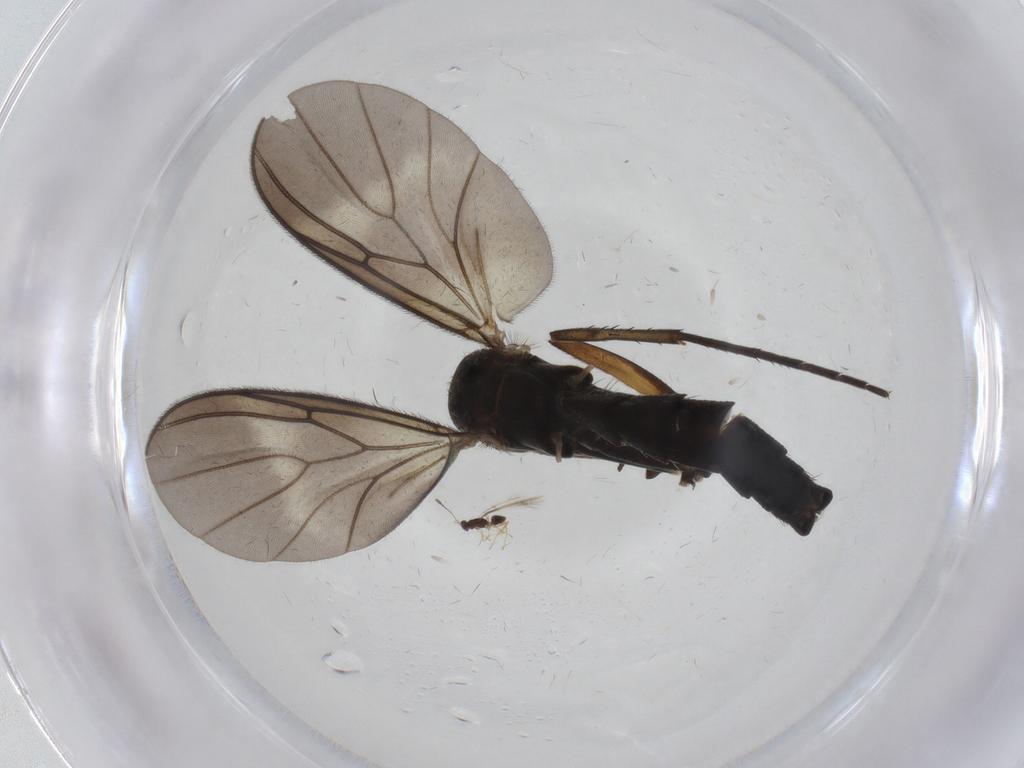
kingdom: Animalia
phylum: Arthropoda
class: Insecta
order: Diptera
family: Mycetophilidae
